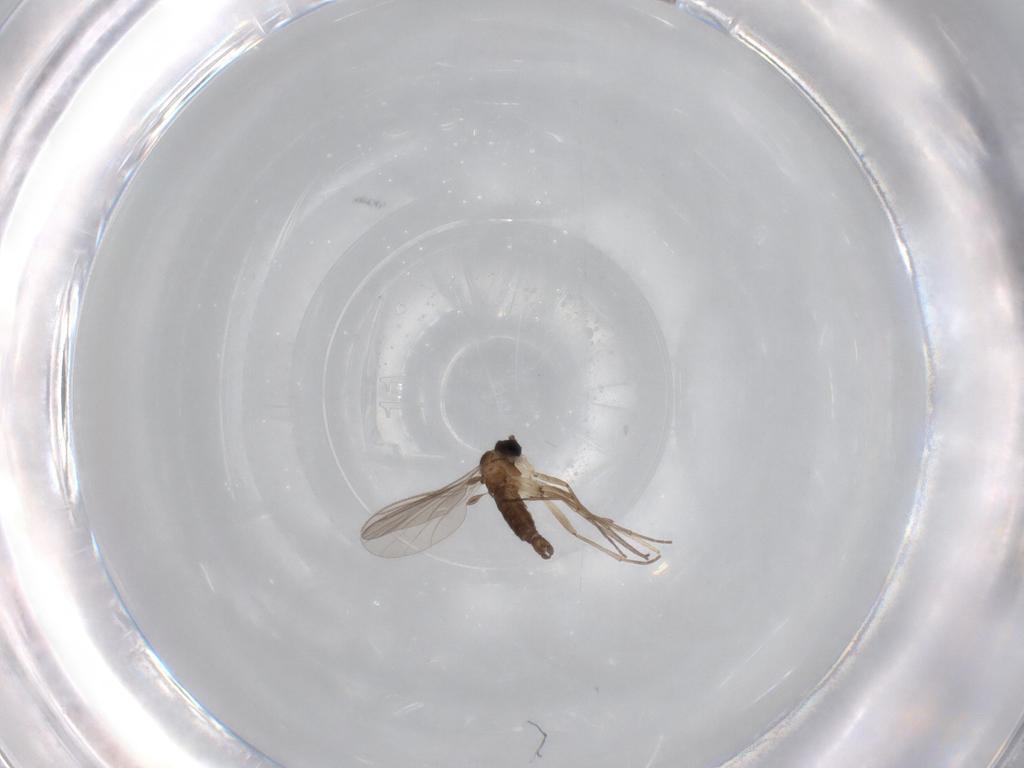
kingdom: Animalia
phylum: Arthropoda
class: Insecta
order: Diptera
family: Sciaridae
